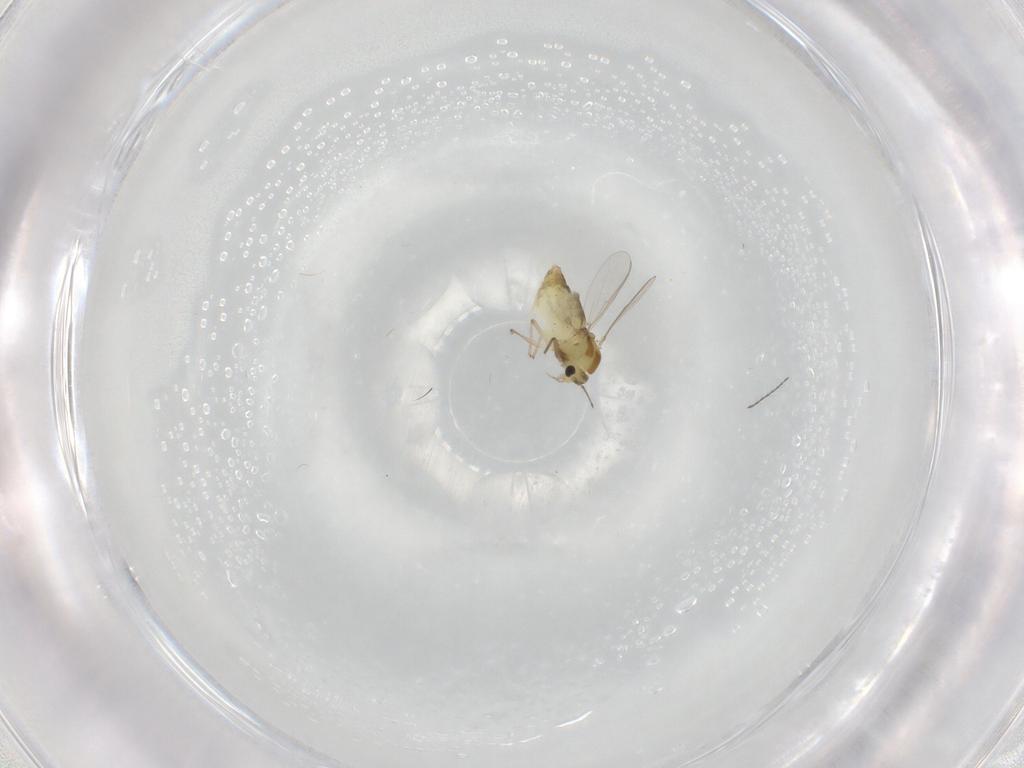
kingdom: Animalia
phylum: Arthropoda
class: Insecta
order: Diptera
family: Chironomidae
